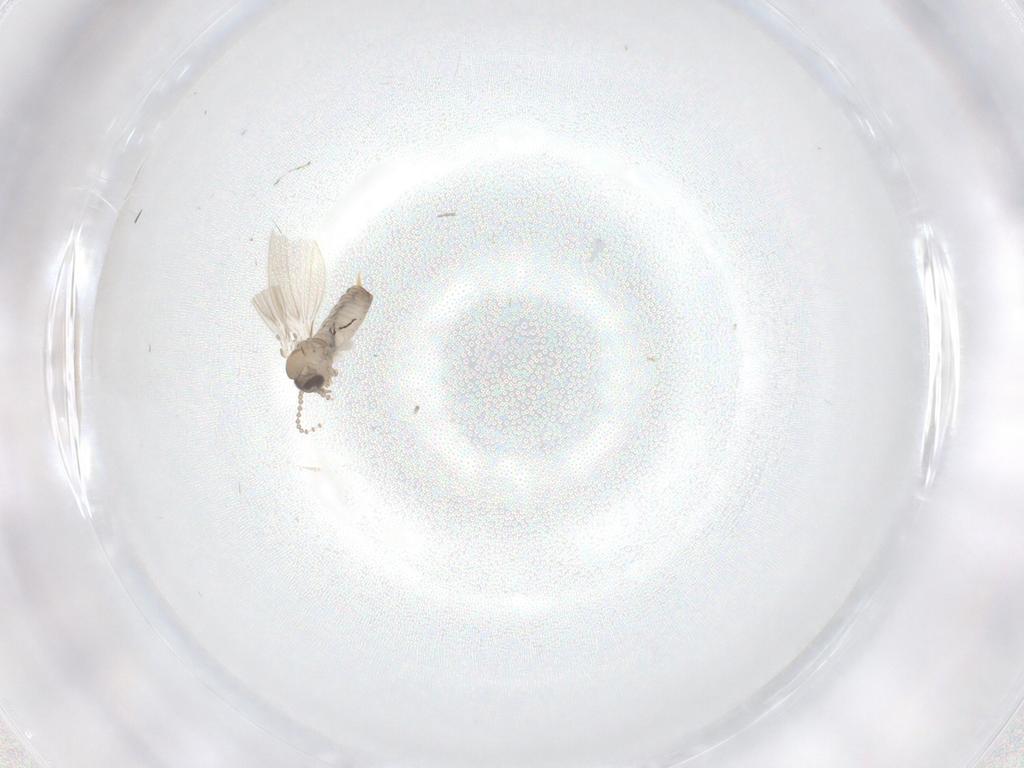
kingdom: Animalia
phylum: Arthropoda
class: Insecta
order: Diptera
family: Psychodidae
